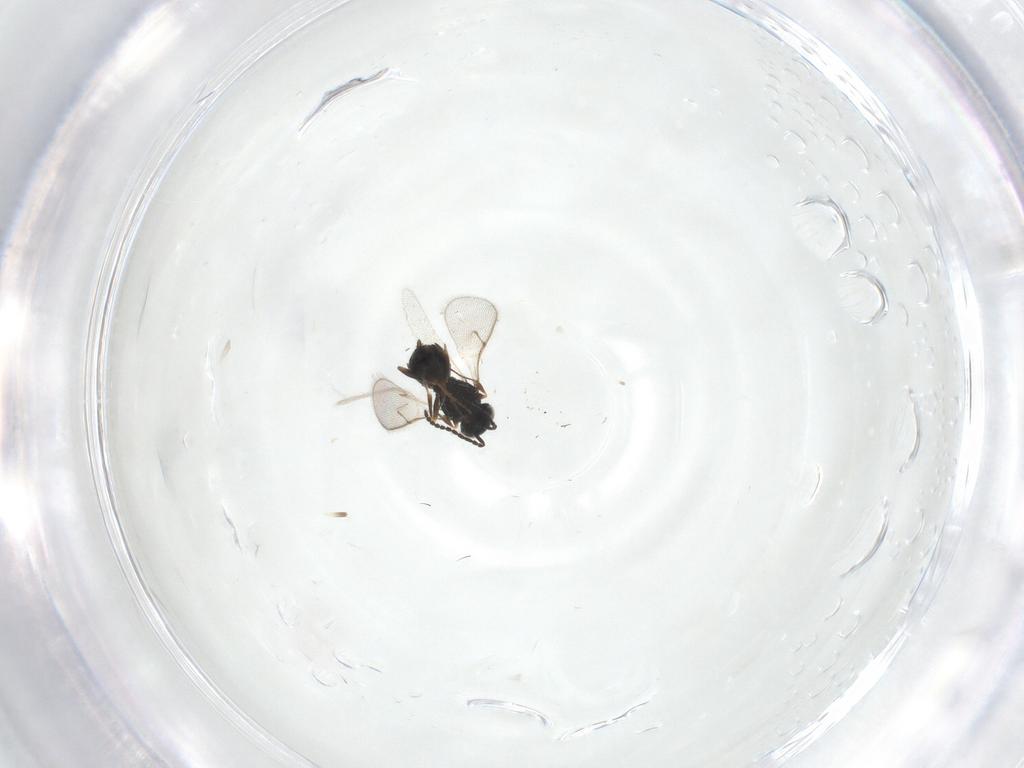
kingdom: Animalia
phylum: Arthropoda
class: Insecta
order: Hymenoptera
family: Scelionidae
